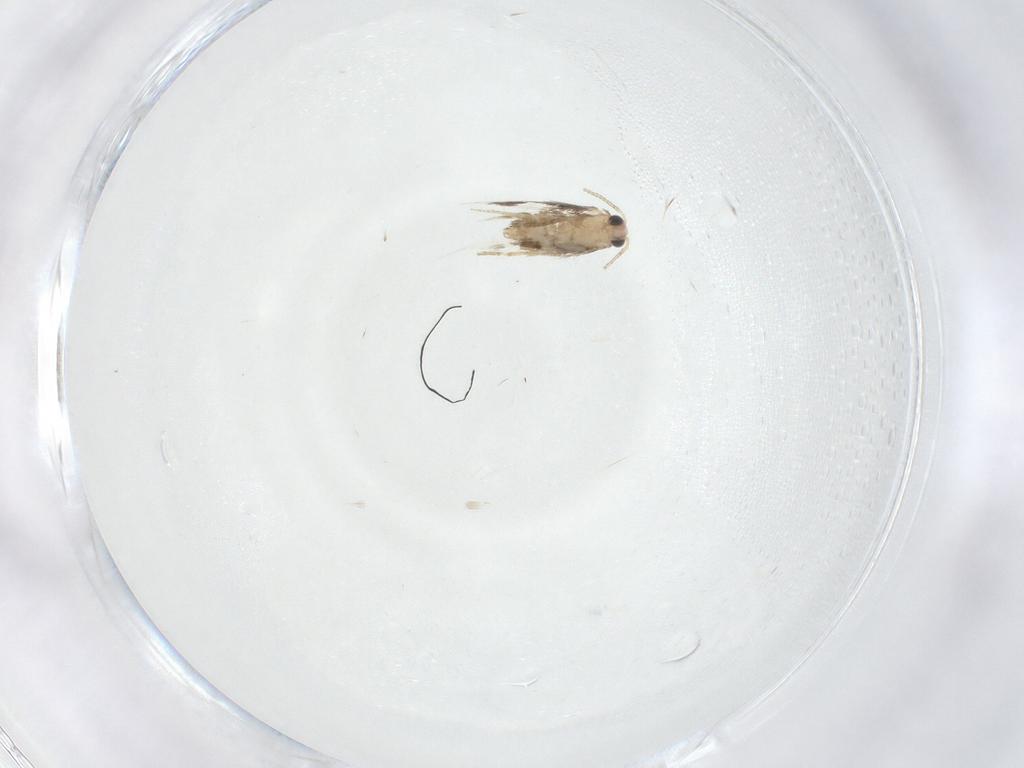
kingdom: Animalia
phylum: Arthropoda
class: Insecta
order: Lepidoptera
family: Nepticulidae
